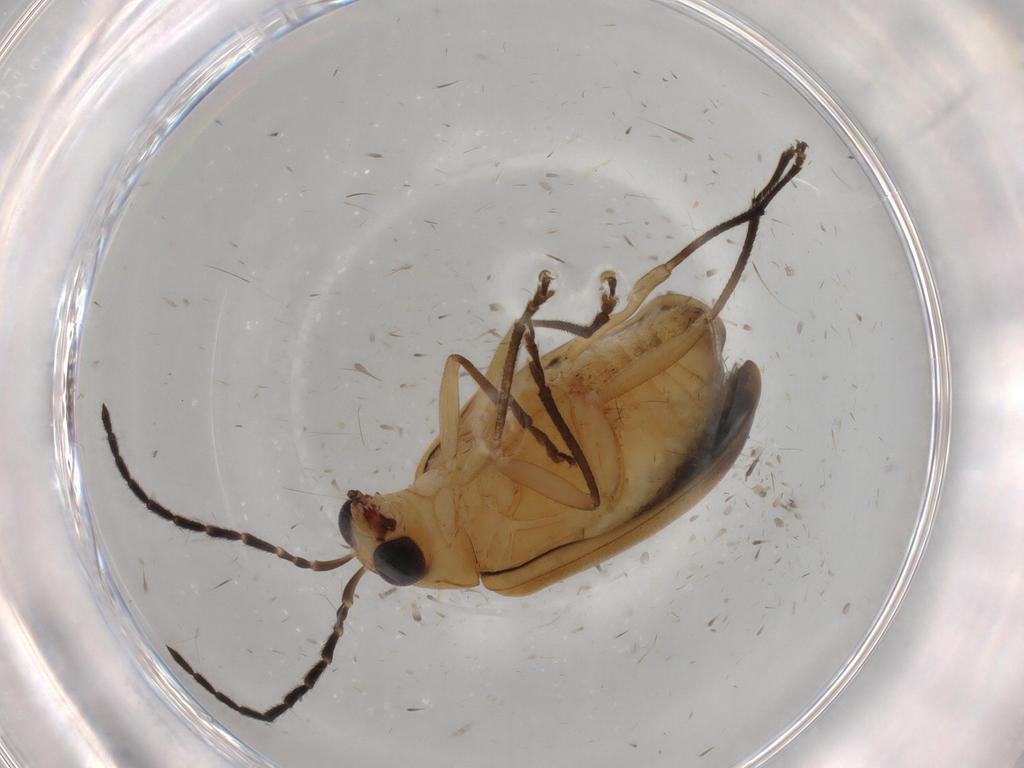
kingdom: Animalia
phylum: Arthropoda
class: Insecta
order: Coleoptera
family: Chrysomelidae
